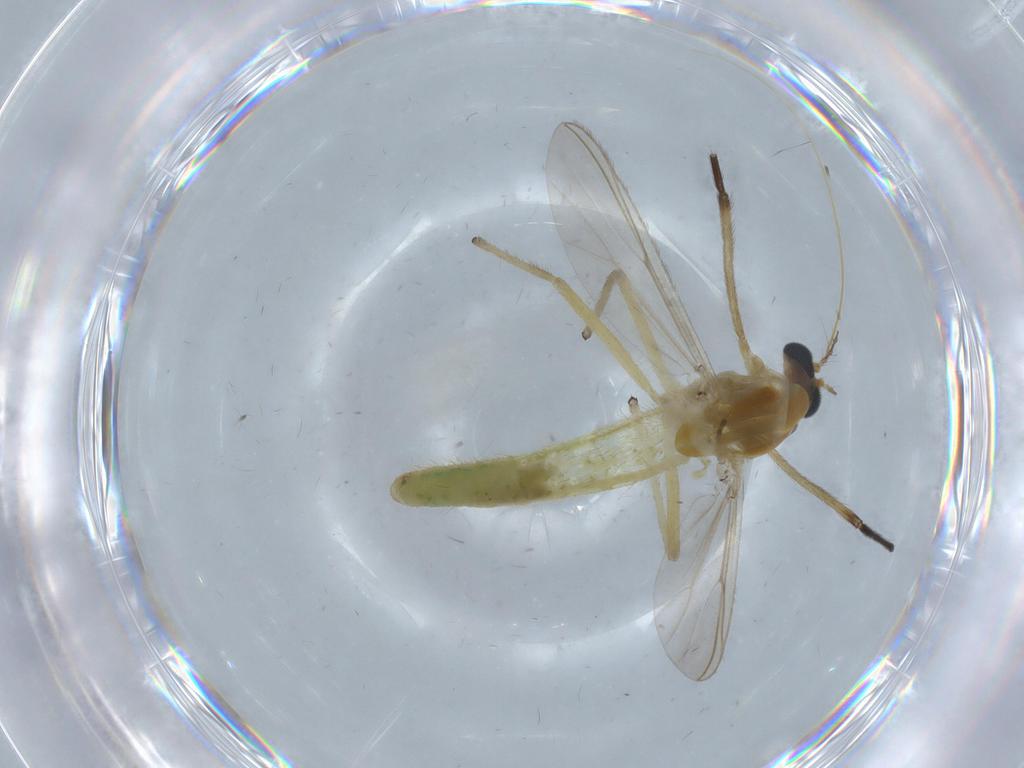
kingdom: Animalia
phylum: Arthropoda
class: Insecta
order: Diptera
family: Chironomidae
